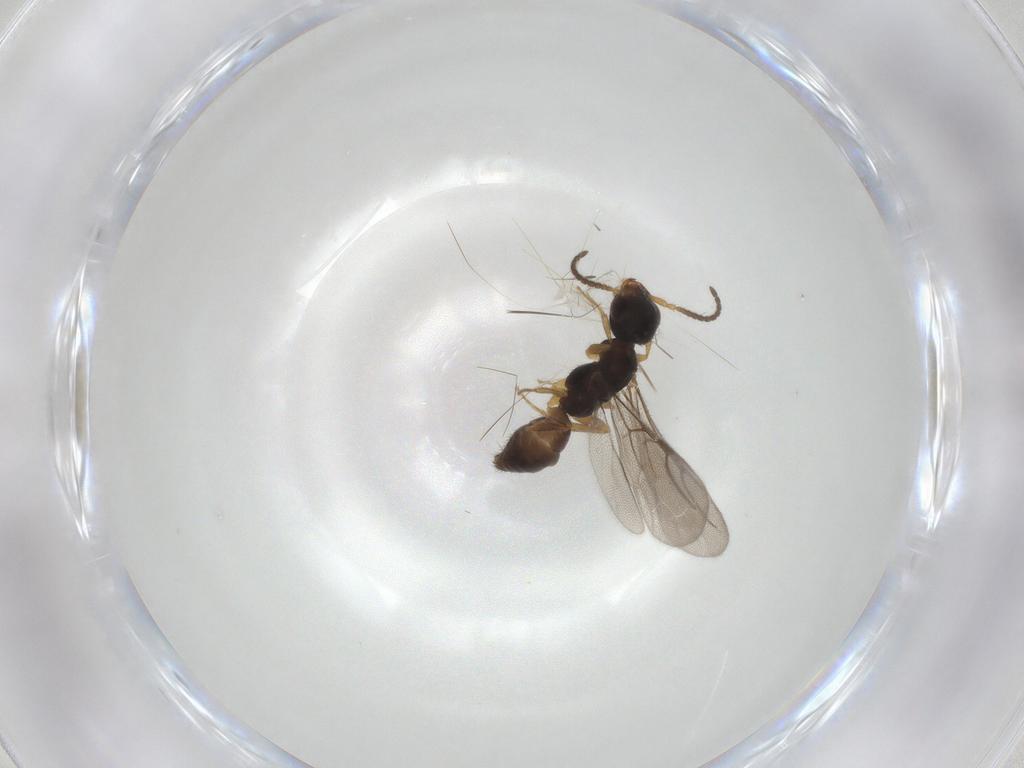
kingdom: Animalia
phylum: Arthropoda
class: Insecta
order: Hymenoptera
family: Bethylidae
